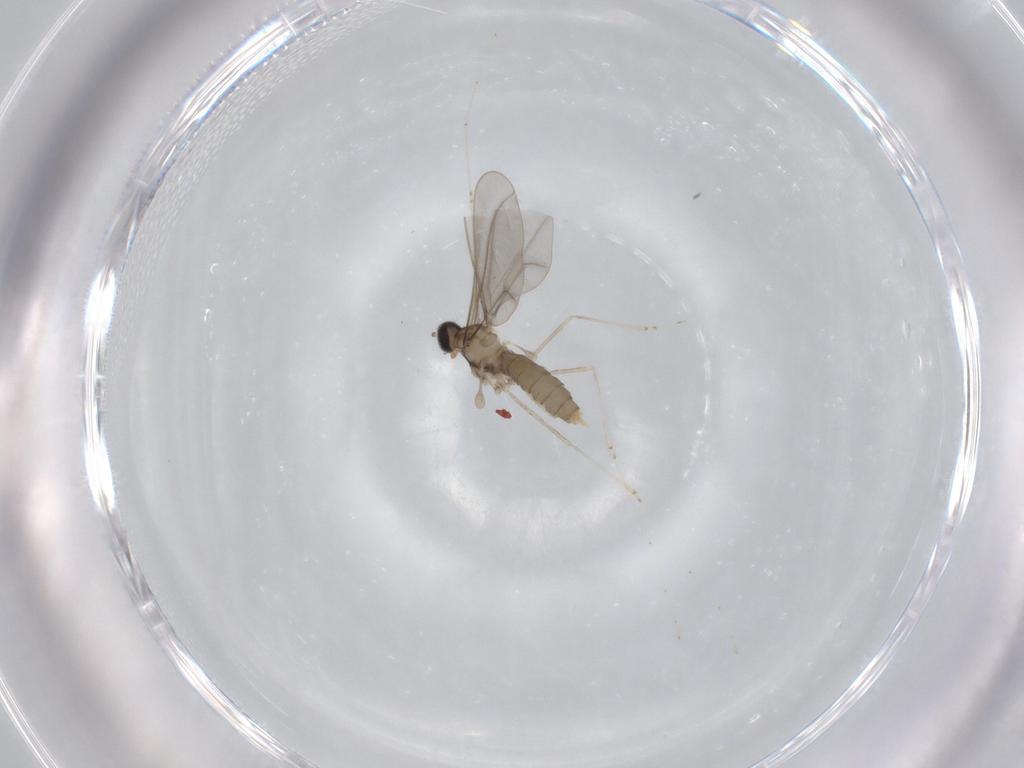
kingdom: Animalia
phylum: Arthropoda
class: Insecta
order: Diptera
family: Cecidomyiidae
